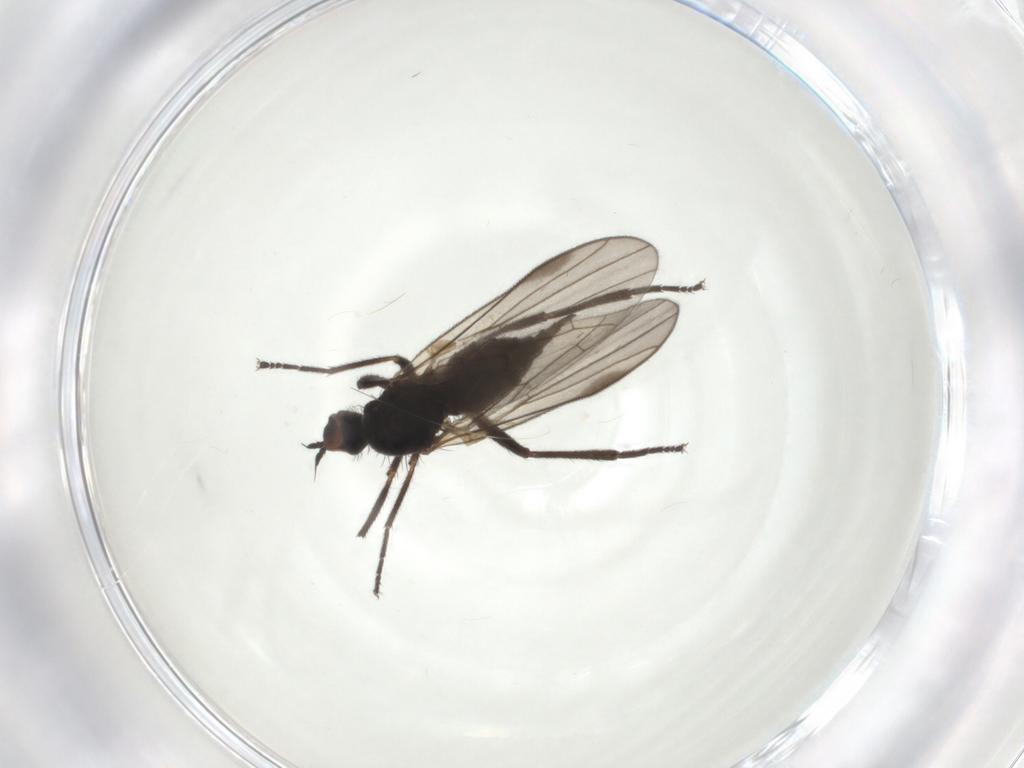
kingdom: Animalia
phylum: Arthropoda
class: Insecta
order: Diptera
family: Hybotidae
